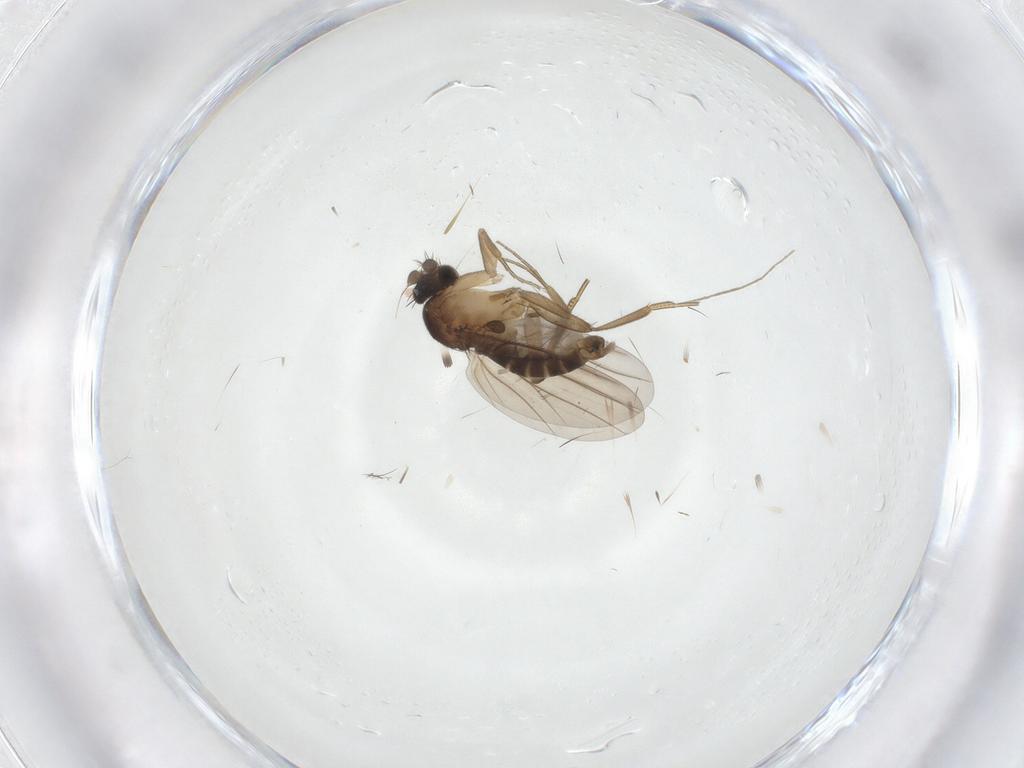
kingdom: Animalia
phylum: Arthropoda
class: Insecta
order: Diptera
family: Phoridae
